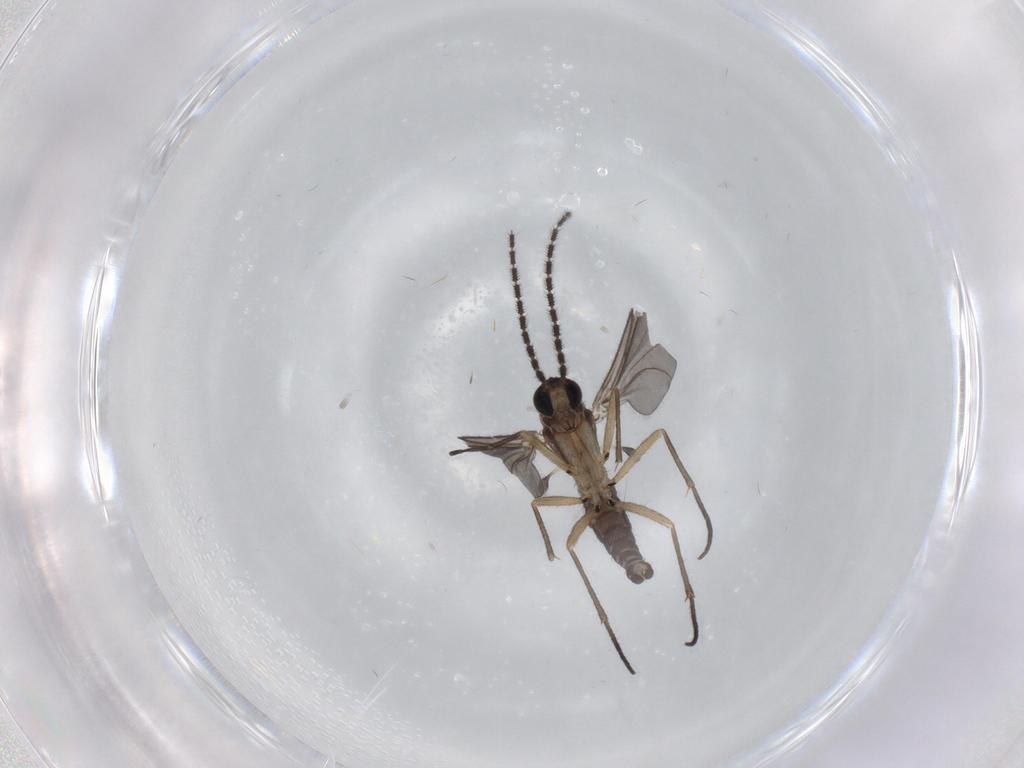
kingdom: Animalia
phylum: Arthropoda
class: Insecta
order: Diptera
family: Sciaridae
